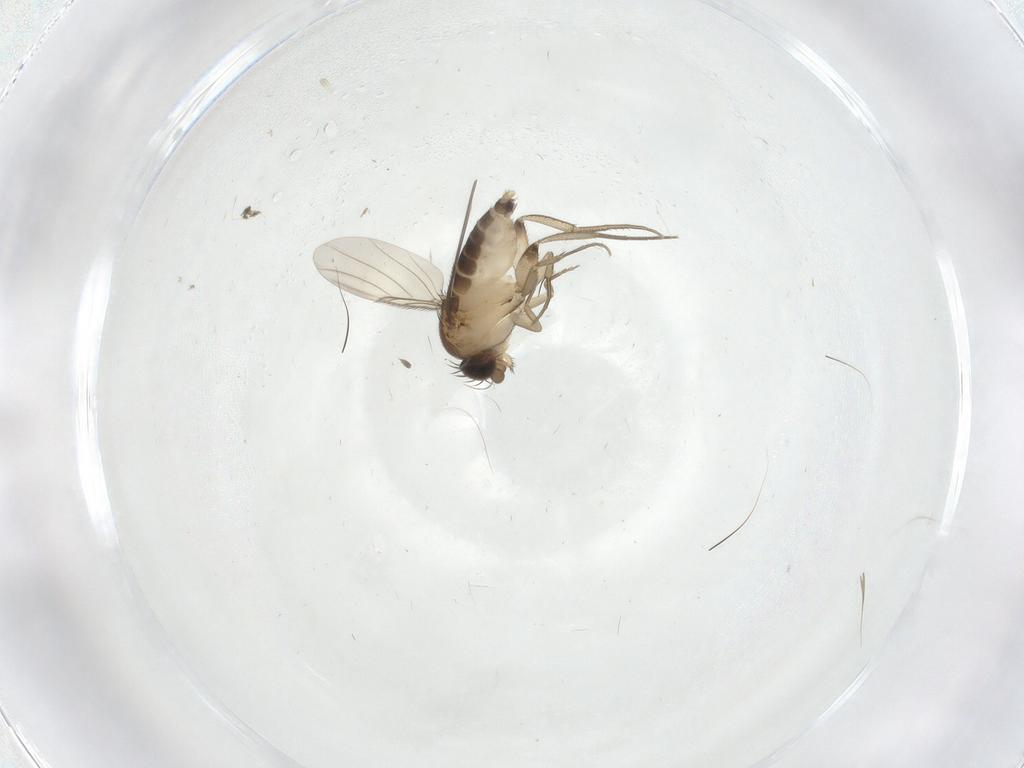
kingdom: Animalia
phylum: Arthropoda
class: Insecta
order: Diptera
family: Phoridae
